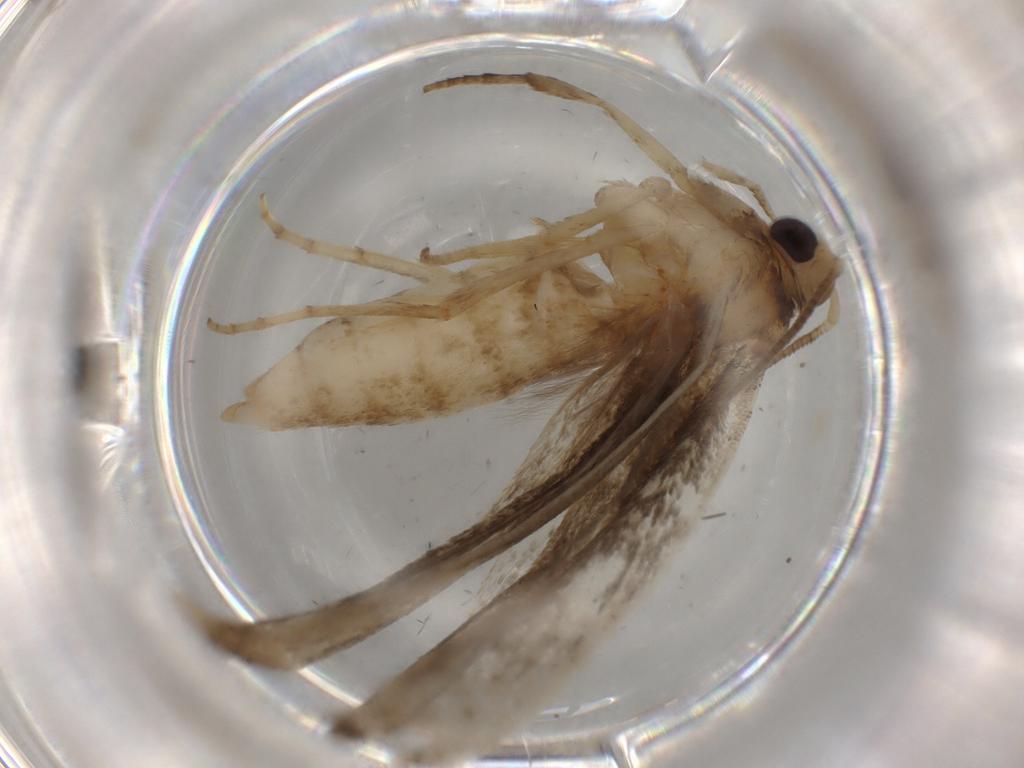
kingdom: Animalia
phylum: Arthropoda
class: Insecta
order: Lepidoptera
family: Yponomeutidae
